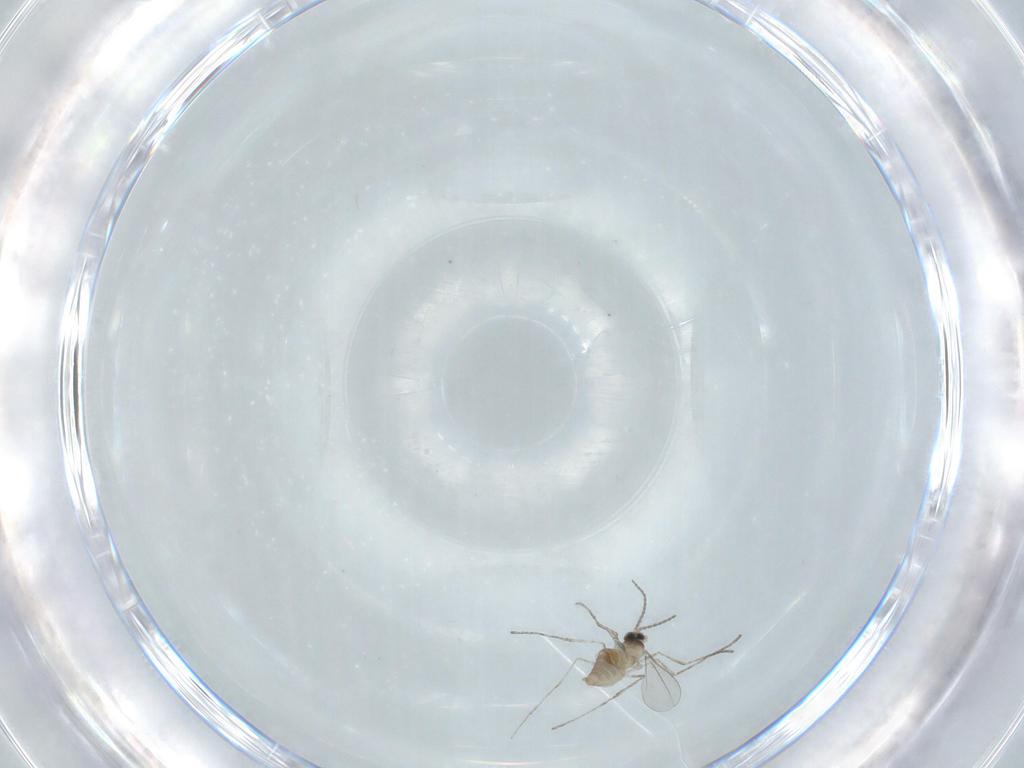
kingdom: Animalia
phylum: Arthropoda
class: Insecta
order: Diptera
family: Cecidomyiidae
